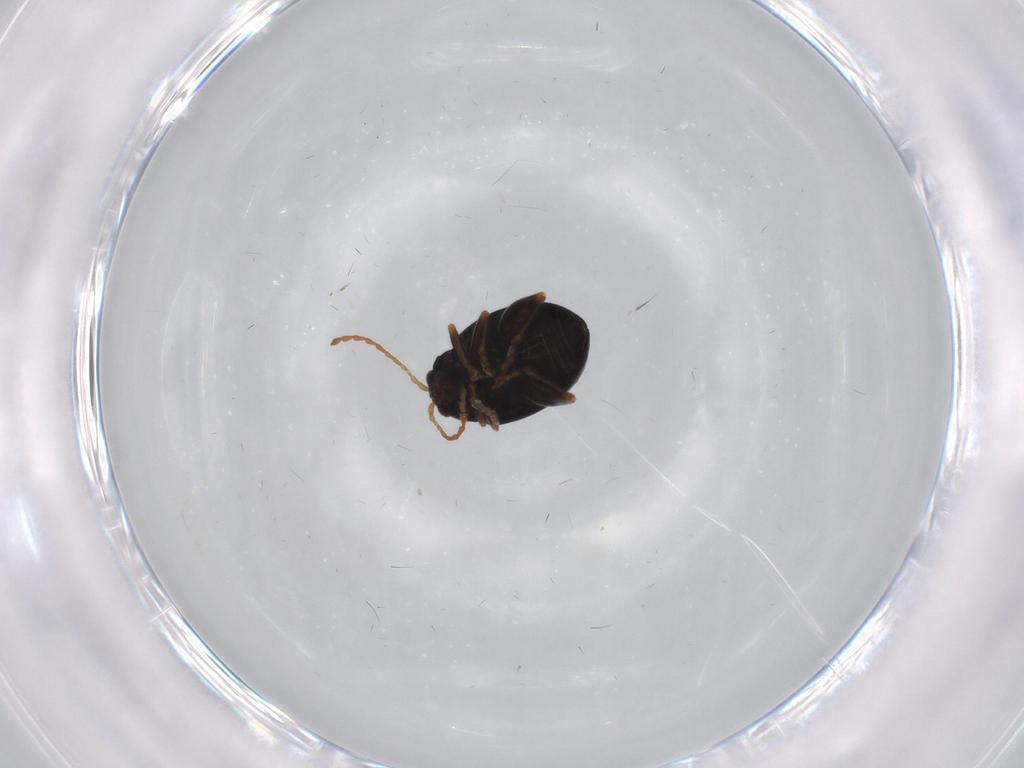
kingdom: Animalia
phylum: Arthropoda
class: Insecta
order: Coleoptera
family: Chrysomelidae
